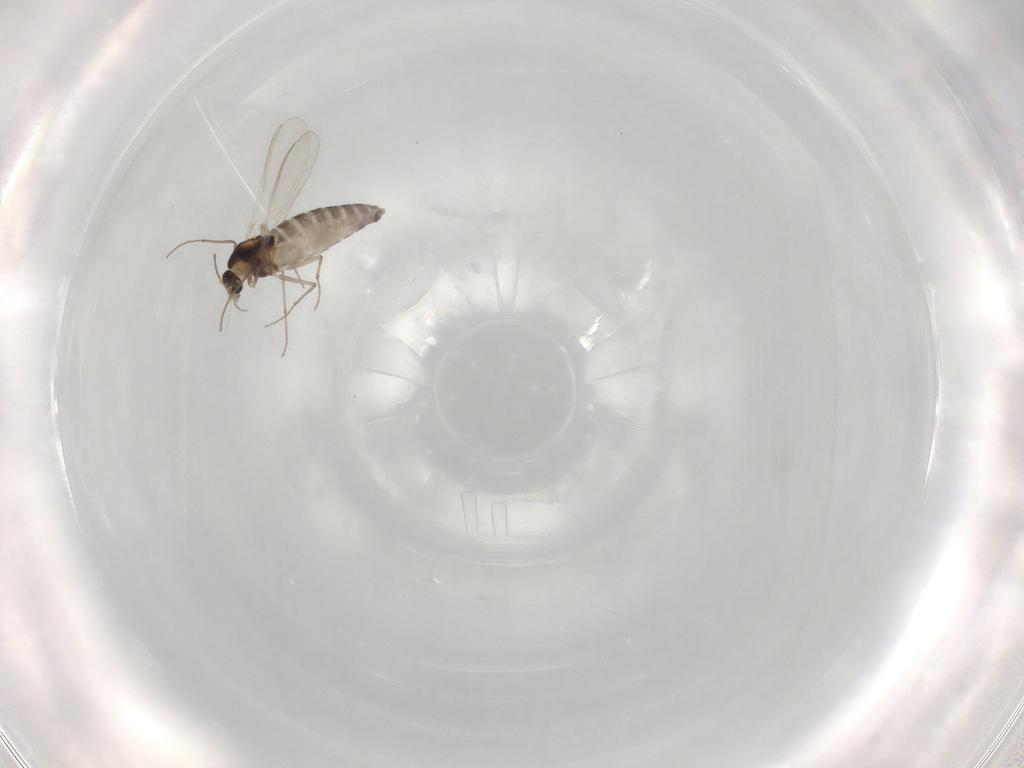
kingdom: Animalia
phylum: Arthropoda
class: Insecta
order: Diptera
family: Chironomidae
